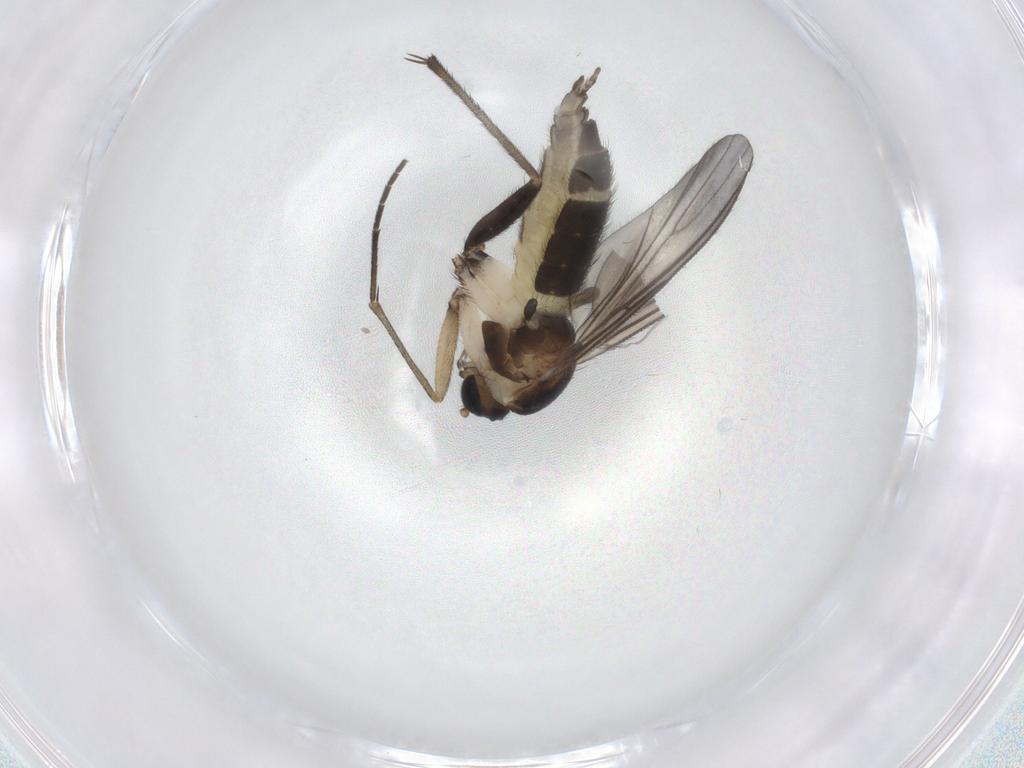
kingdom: Animalia
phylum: Arthropoda
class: Insecta
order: Diptera
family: Sciaridae
